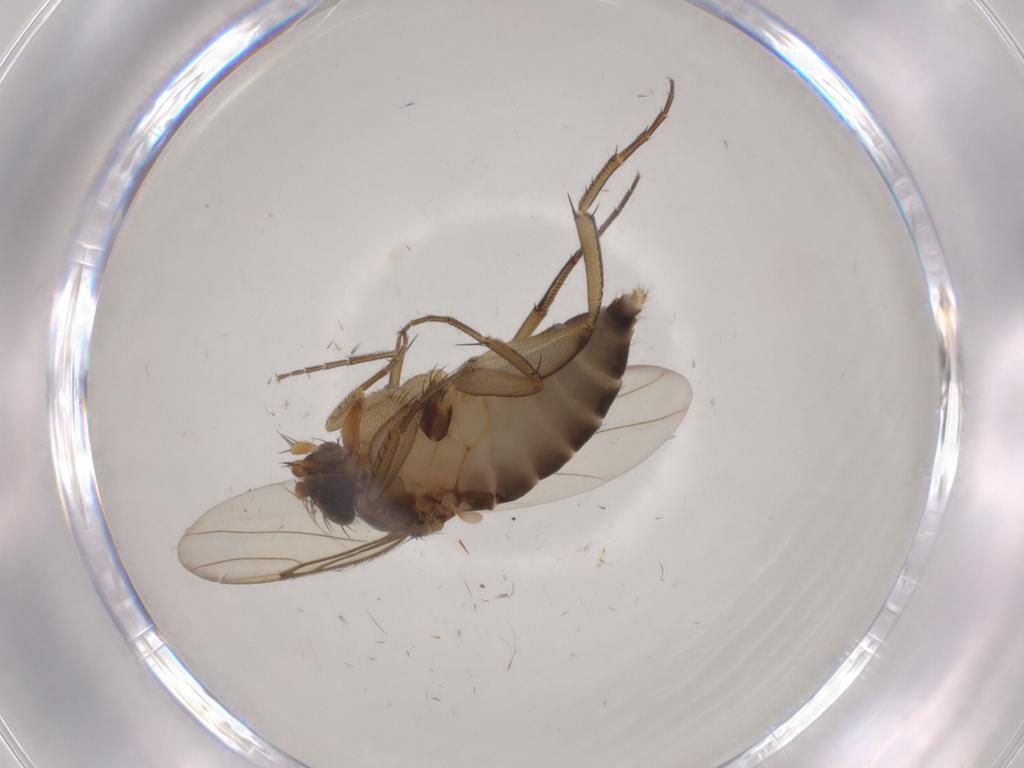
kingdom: Animalia
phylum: Arthropoda
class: Insecta
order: Diptera
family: Phoridae
